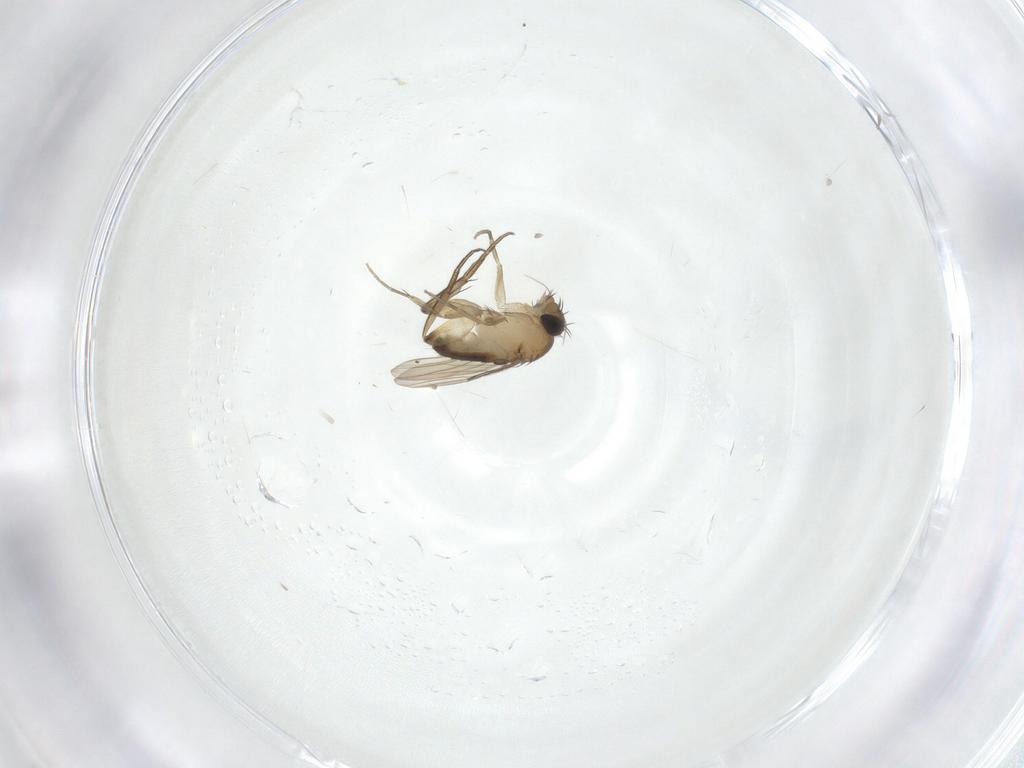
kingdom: Animalia
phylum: Arthropoda
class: Insecta
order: Diptera
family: Phoridae
